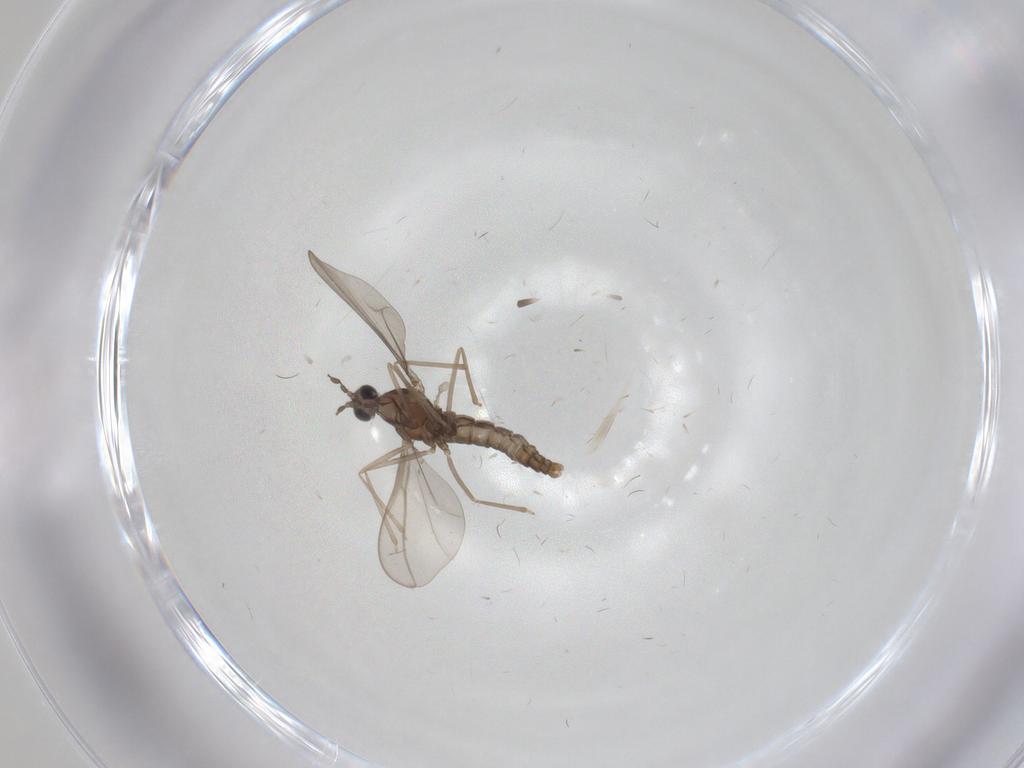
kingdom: Animalia
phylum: Arthropoda
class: Insecta
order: Diptera
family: Cecidomyiidae
